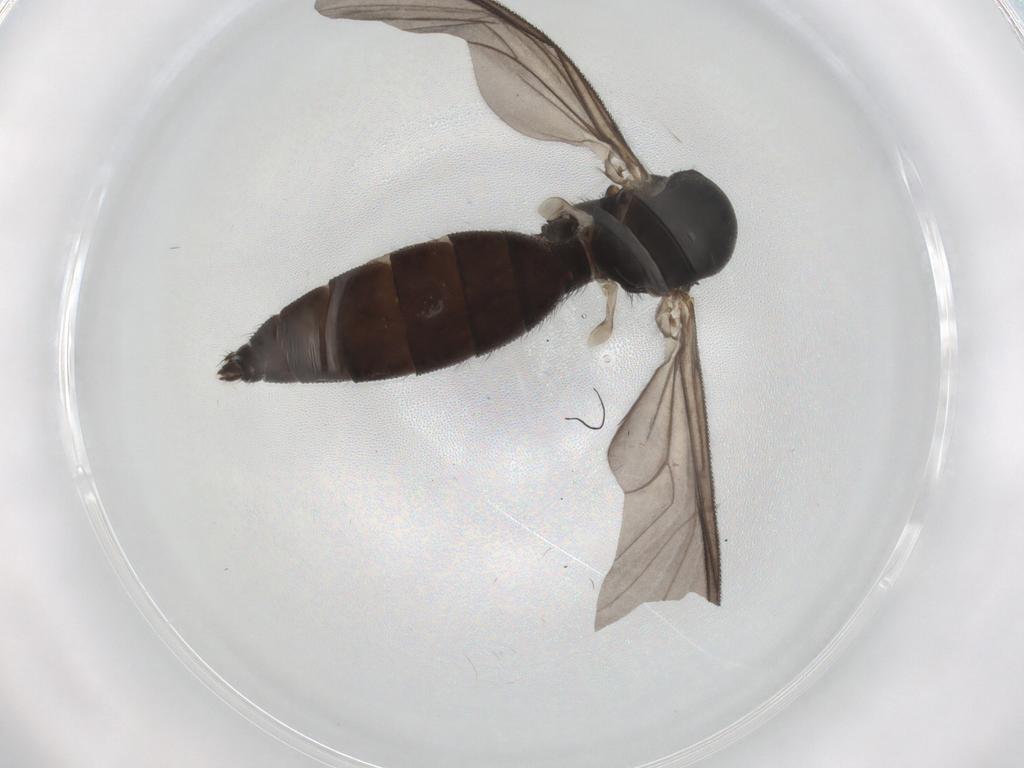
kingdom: Animalia
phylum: Arthropoda
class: Insecta
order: Diptera
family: Mycetophilidae
